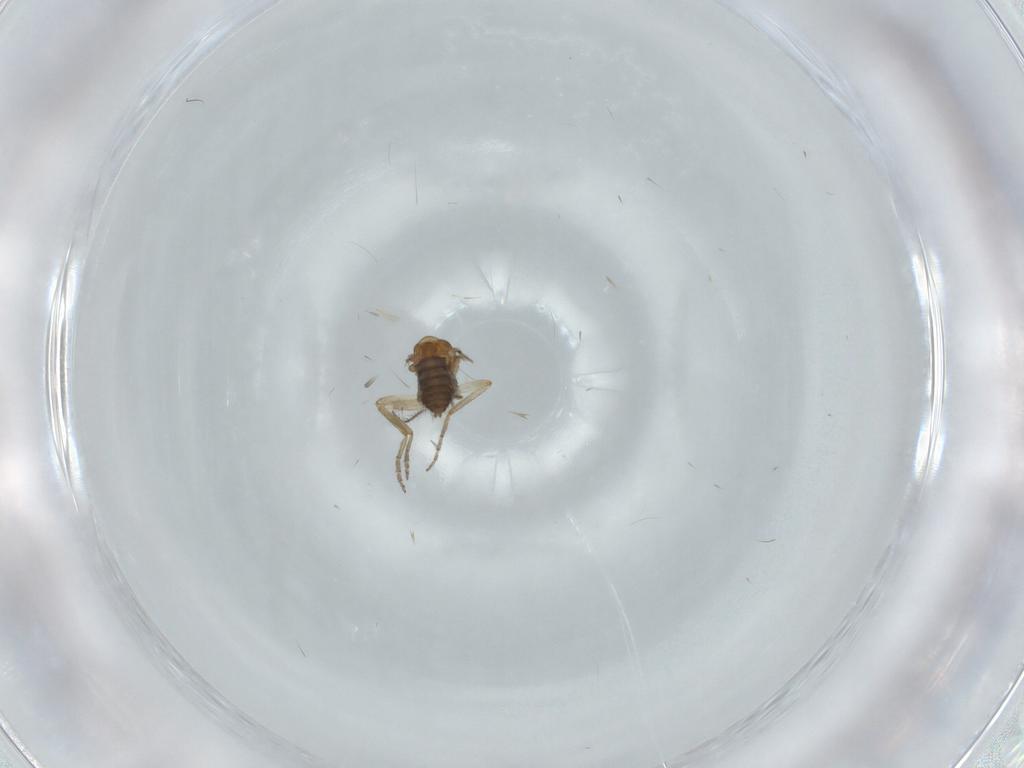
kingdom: Animalia
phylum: Arthropoda
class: Insecta
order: Diptera
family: Ceratopogonidae
